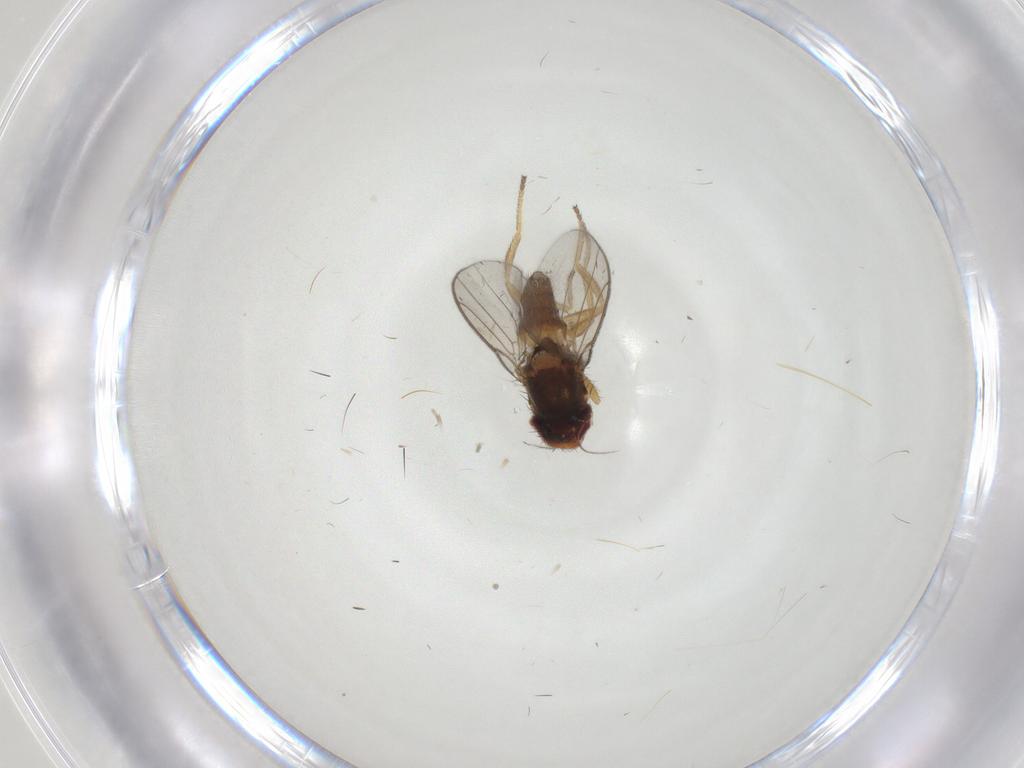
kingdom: Animalia
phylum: Arthropoda
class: Insecta
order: Diptera
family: Chloropidae
